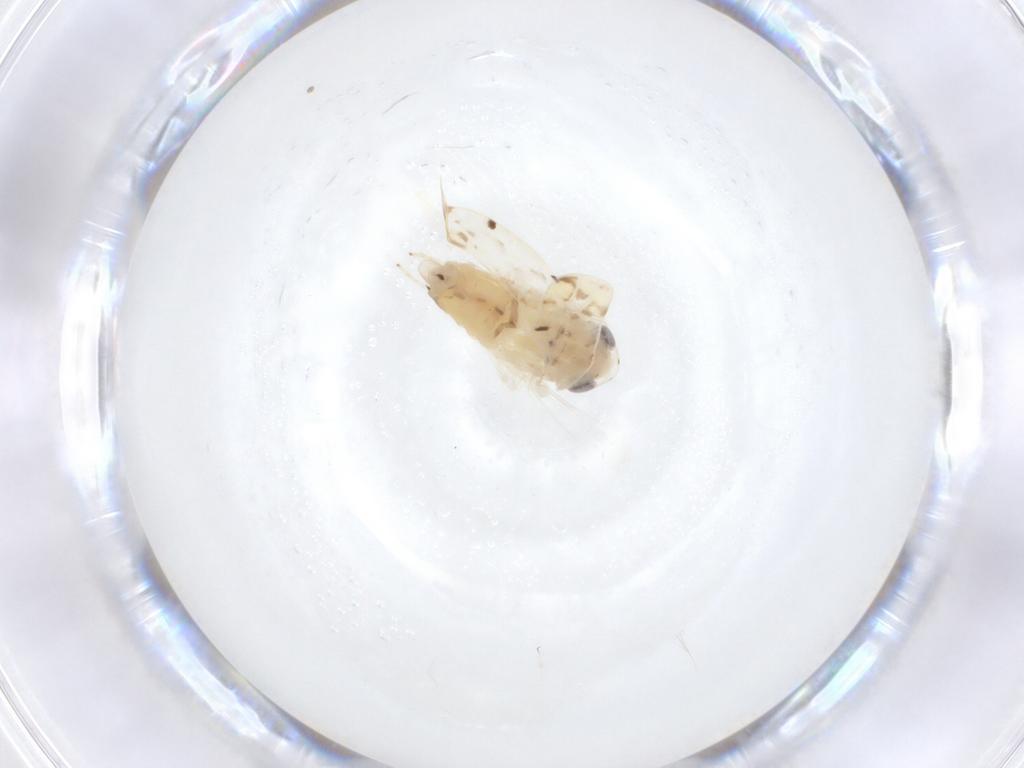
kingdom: Animalia
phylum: Arthropoda
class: Insecta
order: Hemiptera
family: Cicadellidae
